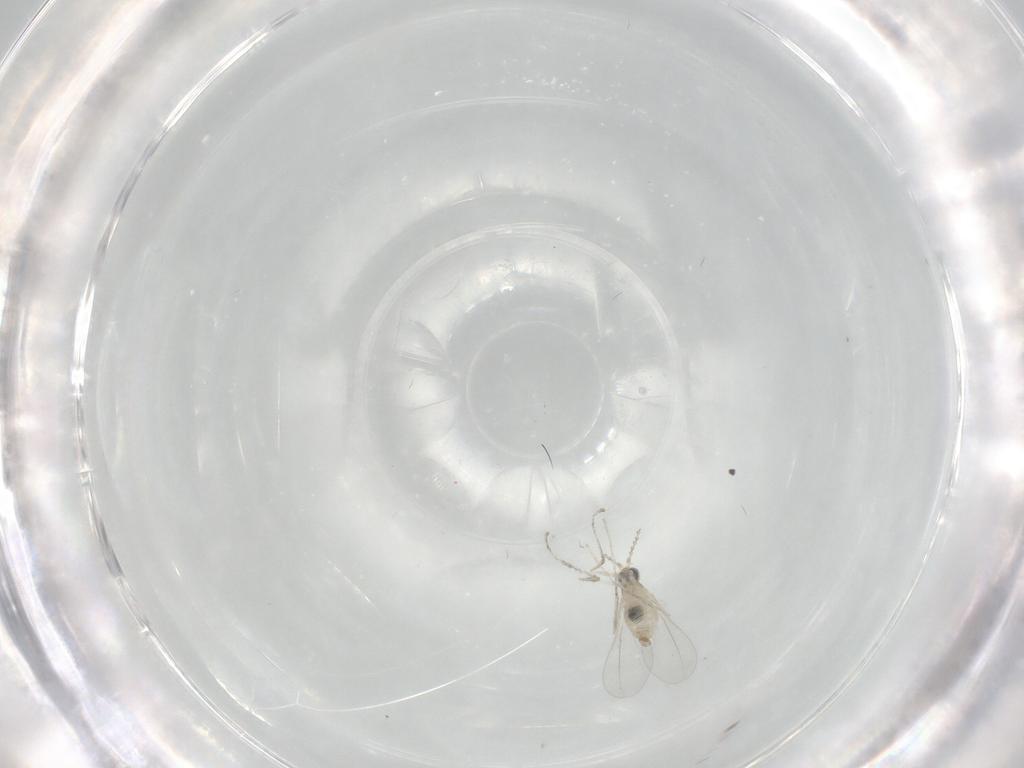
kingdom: Animalia
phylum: Arthropoda
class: Insecta
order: Diptera
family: Cecidomyiidae
